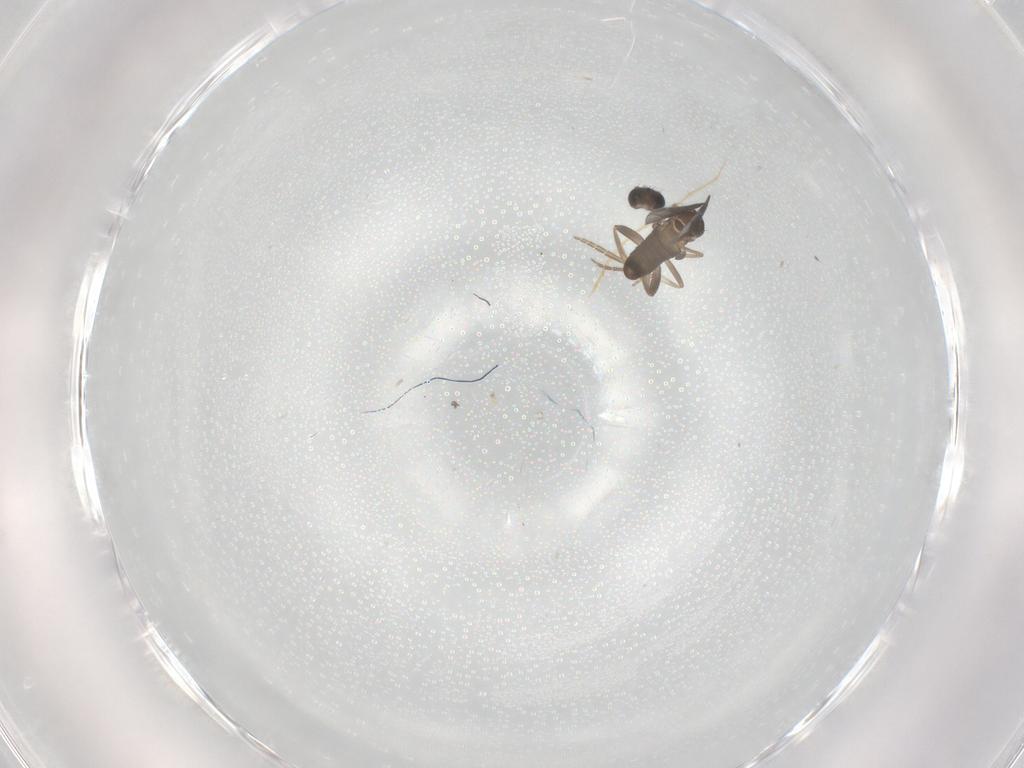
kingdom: Animalia
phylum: Arthropoda
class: Insecta
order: Diptera
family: Phoridae
